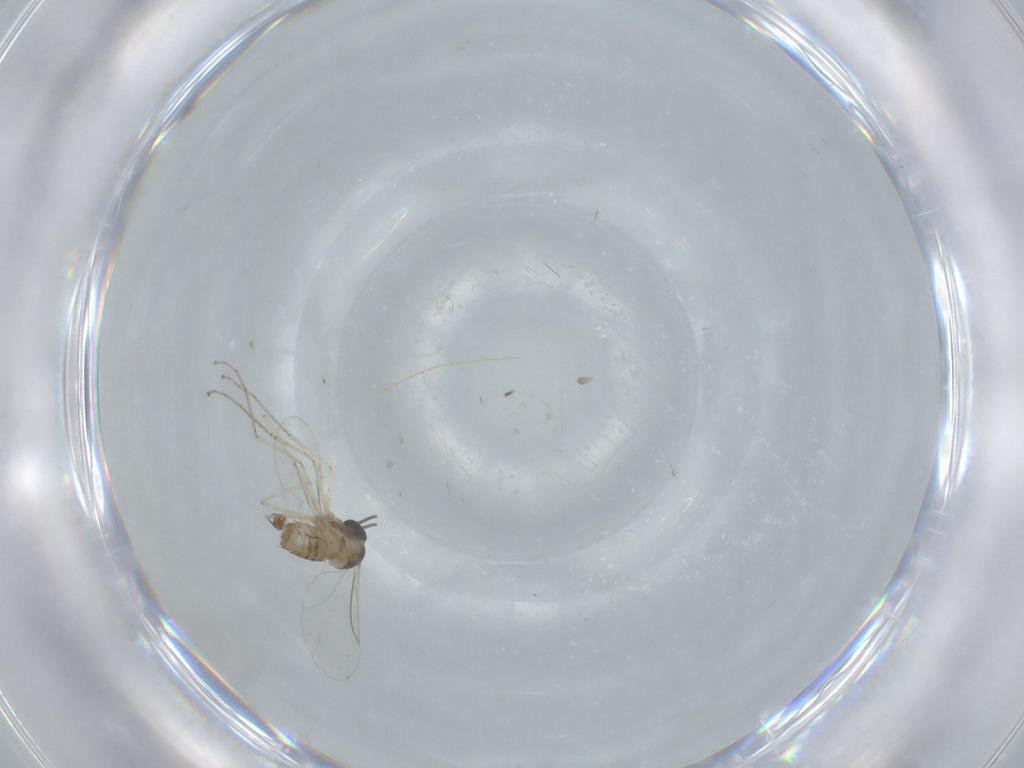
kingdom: Animalia
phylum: Arthropoda
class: Insecta
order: Diptera
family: Cecidomyiidae
